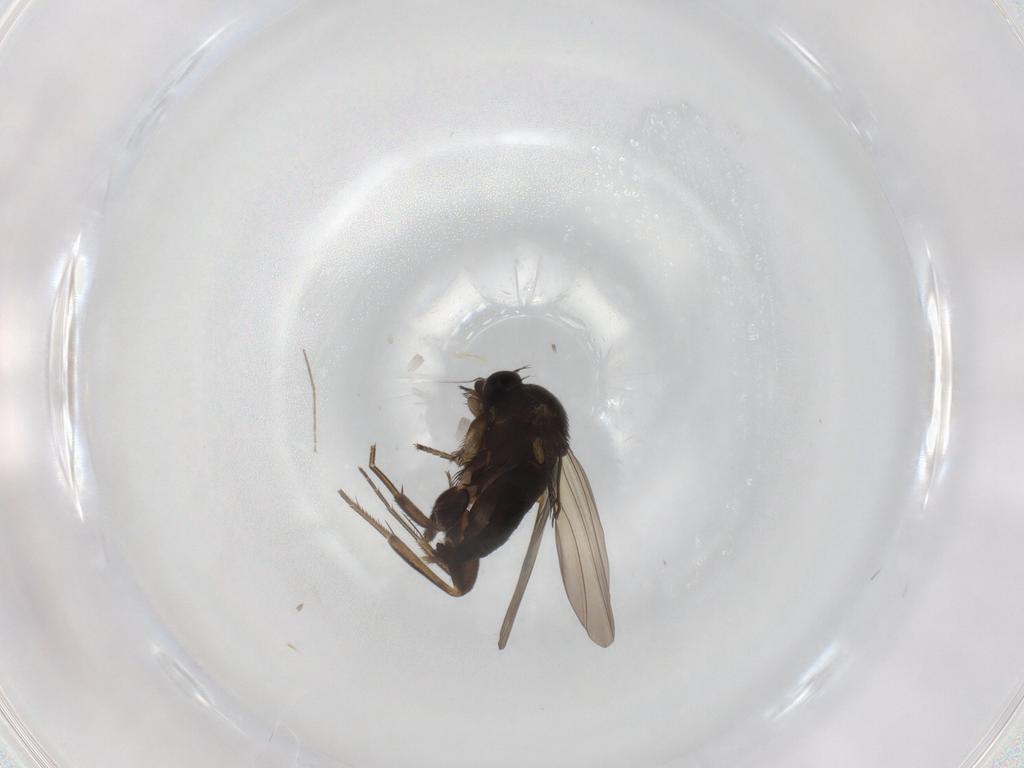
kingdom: Animalia
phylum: Arthropoda
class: Insecta
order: Diptera
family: Phoridae
